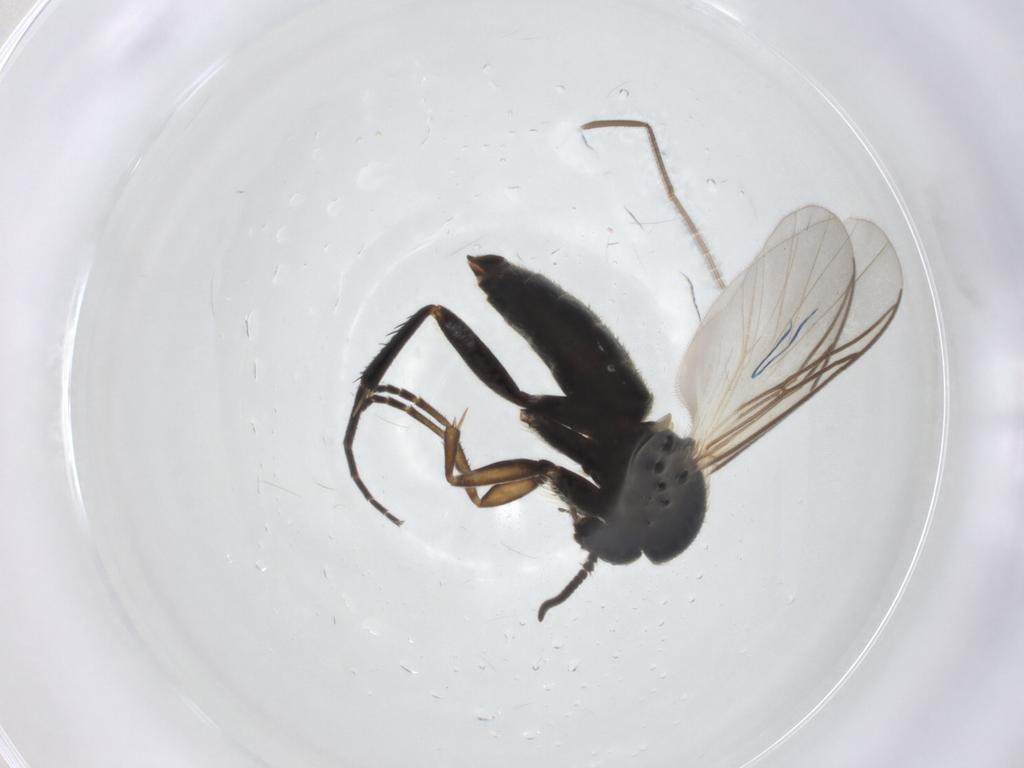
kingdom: Animalia
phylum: Arthropoda
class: Insecta
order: Diptera
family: Mycetophilidae
